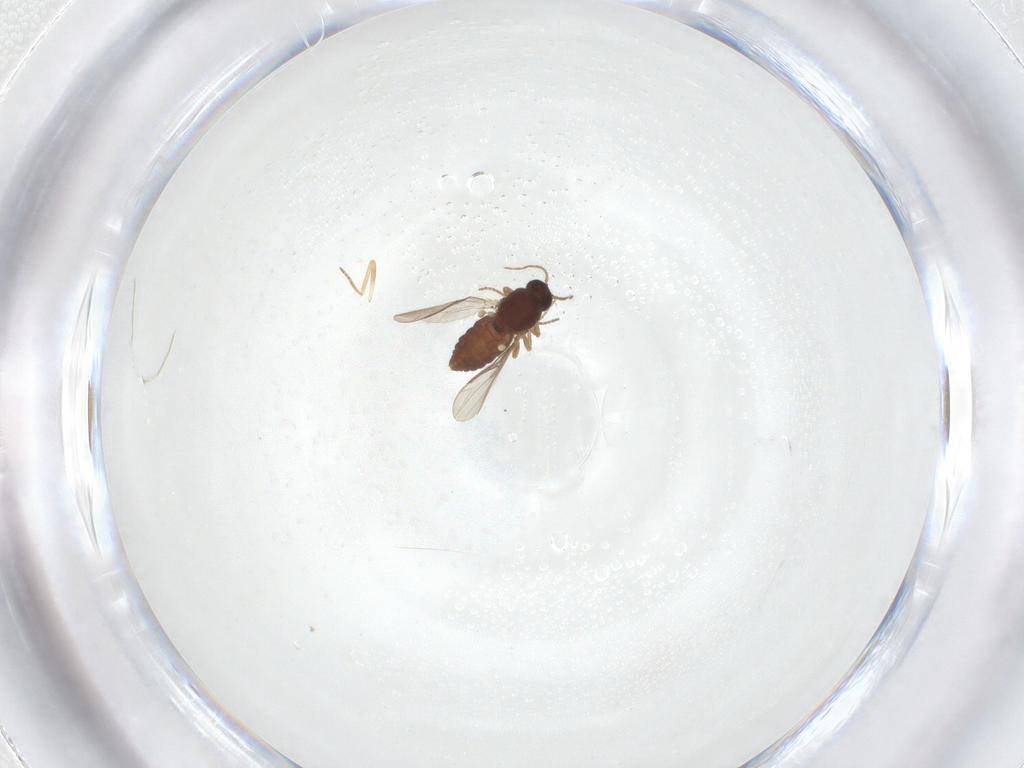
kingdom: Animalia
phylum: Arthropoda
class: Insecta
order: Diptera
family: Ceratopogonidae
